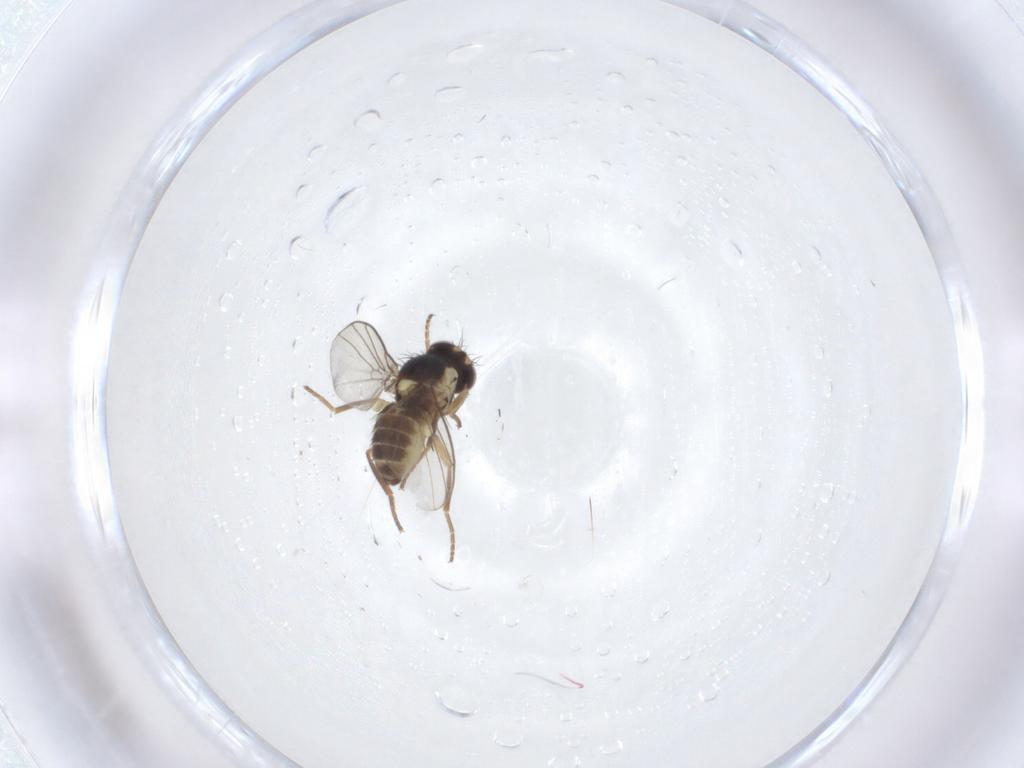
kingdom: Animalia
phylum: Arthropoda
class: Insecta
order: Diptera
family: Agromyzidae
